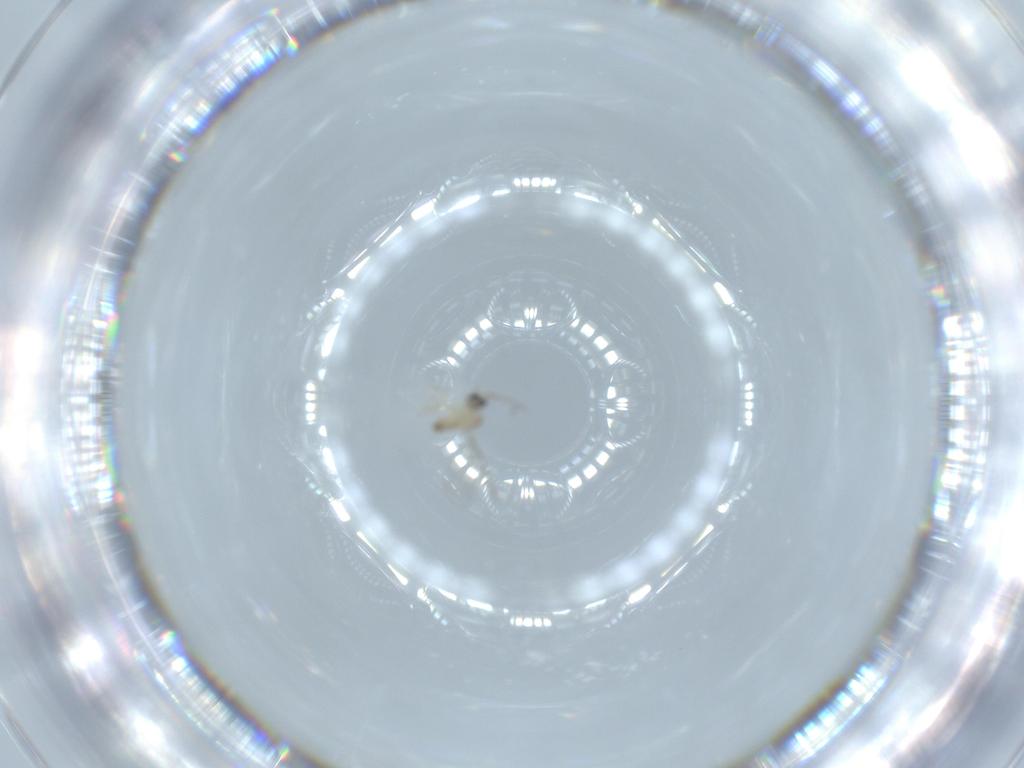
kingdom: Animalia
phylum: Arthropoda
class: Insecta
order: Diptera
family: Cecidomyiidae
